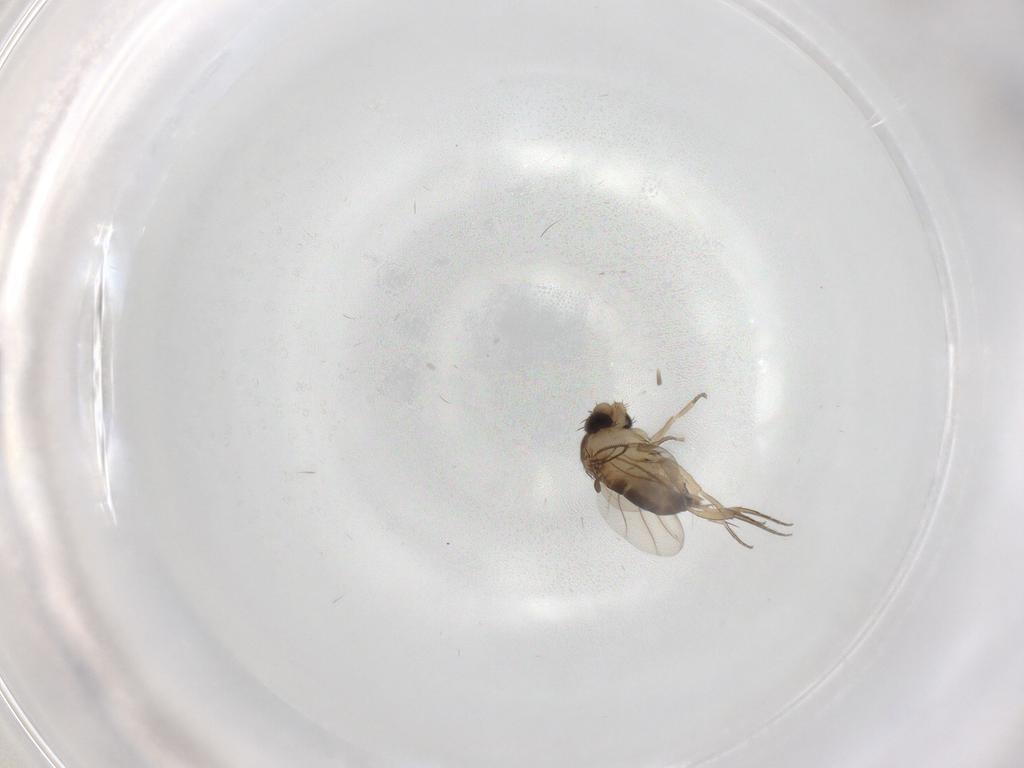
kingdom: Animalia
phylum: Arthropoda
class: Insecta
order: Diptera
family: Phoridae
